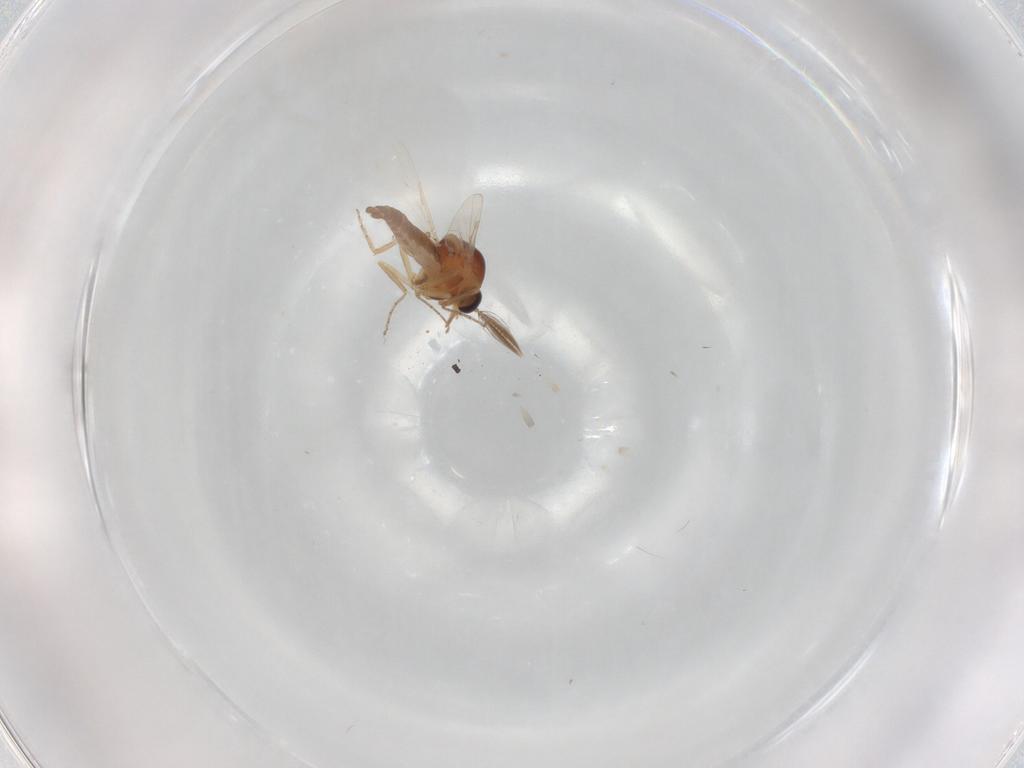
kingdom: Animalia
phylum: Arthropoda
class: Insecta
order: Diptera
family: Ceratopogonidae
